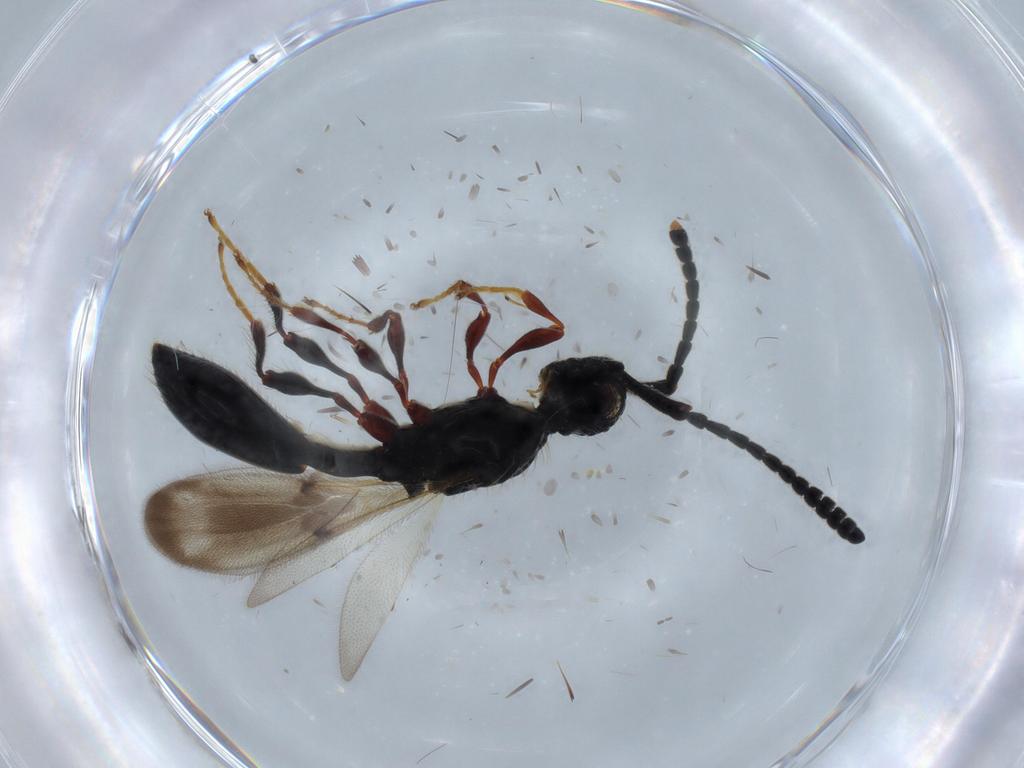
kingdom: Animalia
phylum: Arthropoda
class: Insecta
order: Hymenoptera
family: Diapriidae
